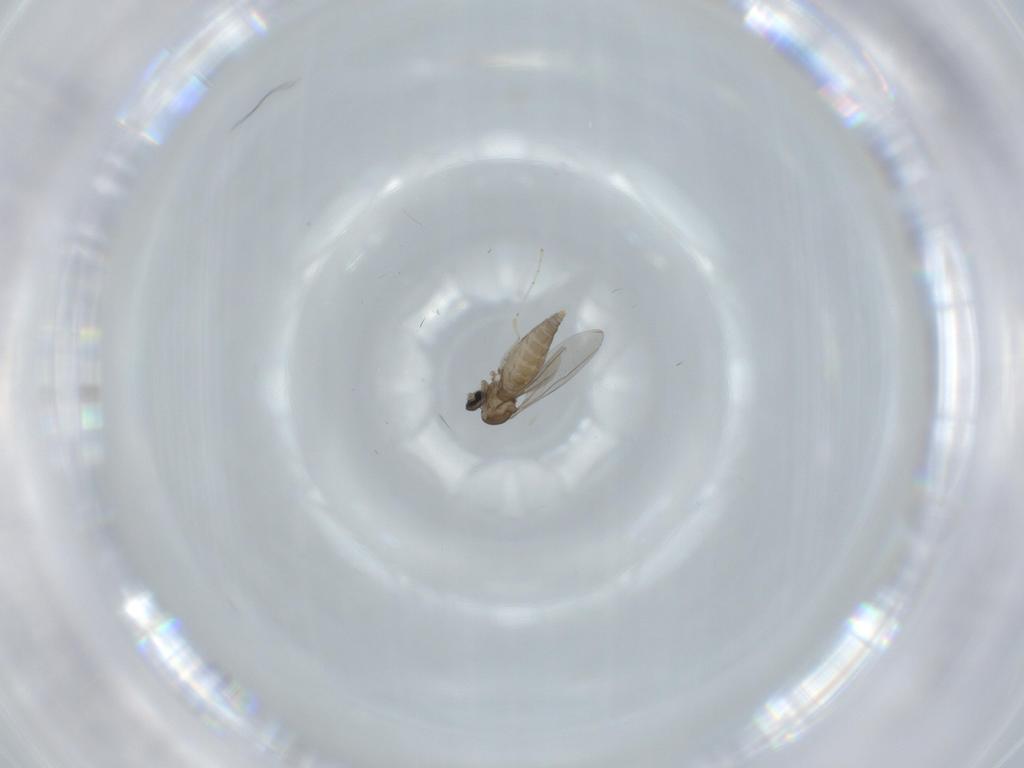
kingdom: Animalia
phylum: Arthropoda
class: Insecta
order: Diptera
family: Cecidomyiidae
